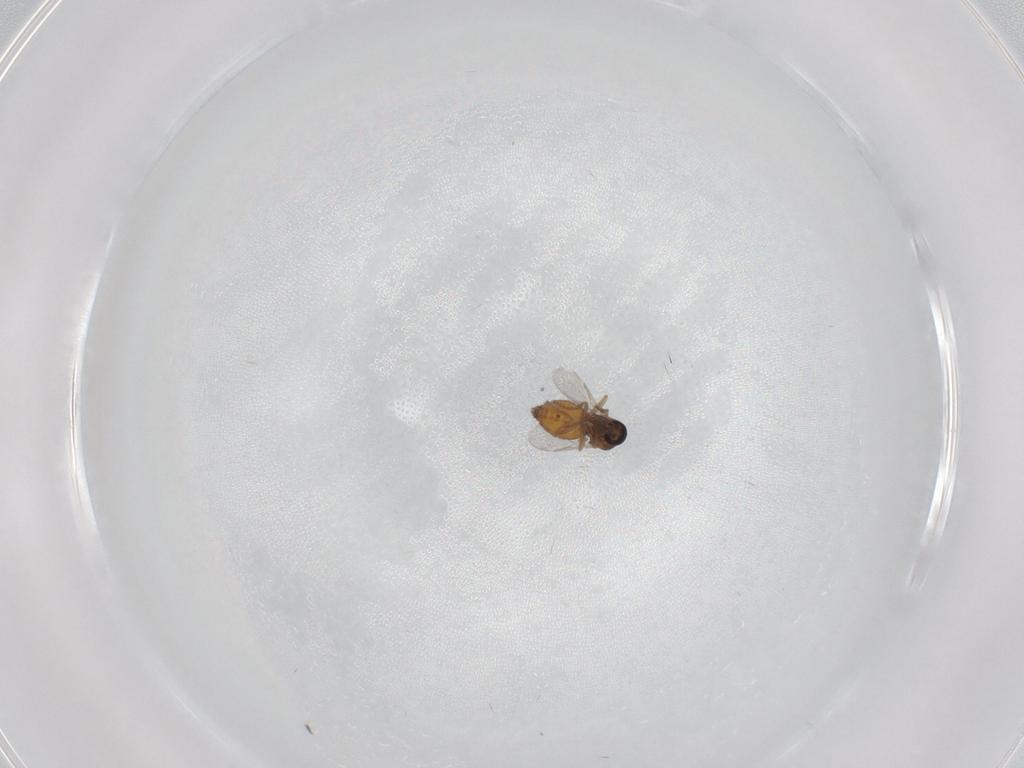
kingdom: Animalia
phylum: Arthropoda
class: Insecta
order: Diptera
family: Ceratopogonidae
